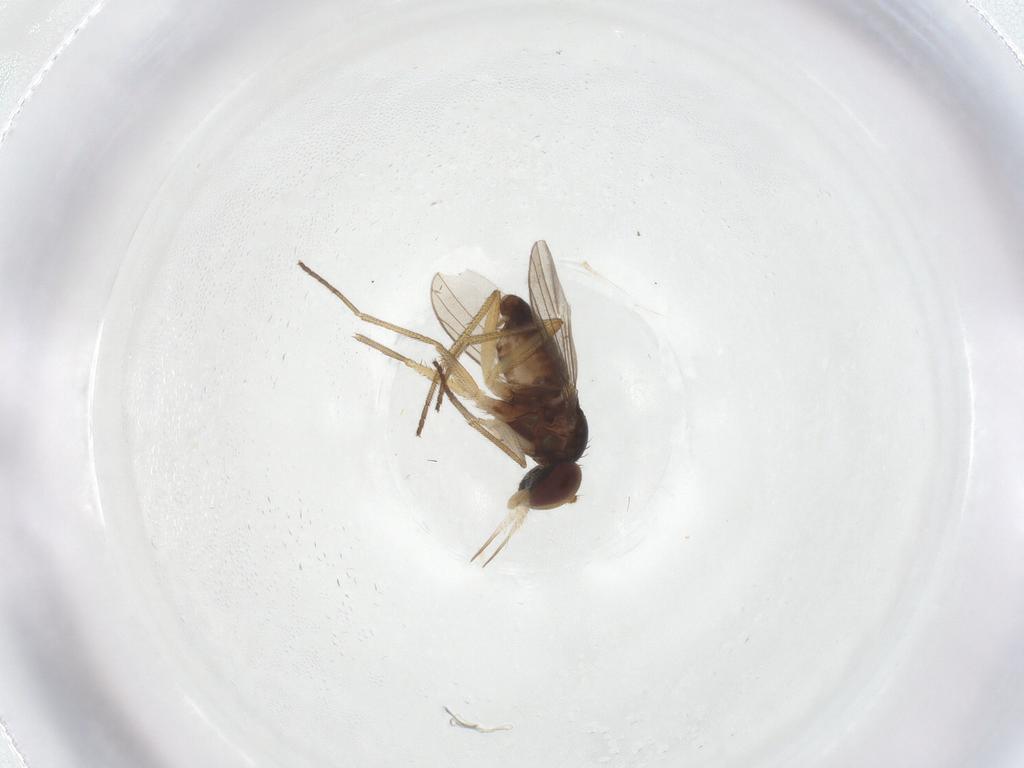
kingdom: Animalia
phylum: Arthropoda
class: Insecta
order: Diptera
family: Dolichopodidae
